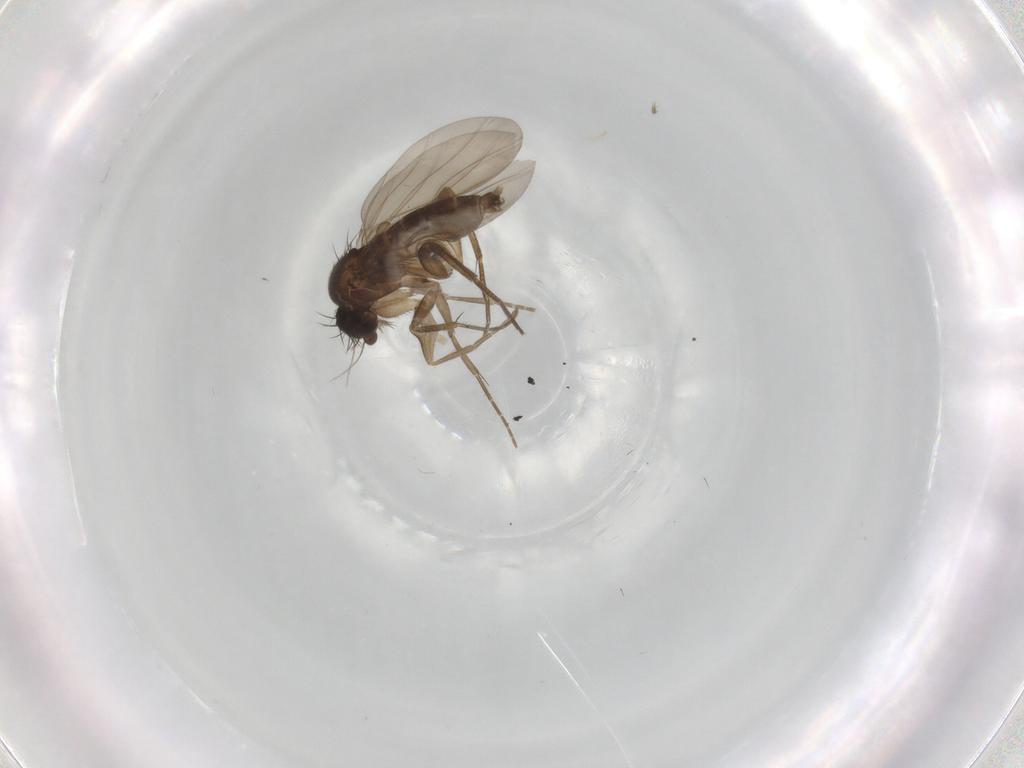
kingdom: Animalia
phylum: Arthropoda
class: Insecta
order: Diptera
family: Phoridae
